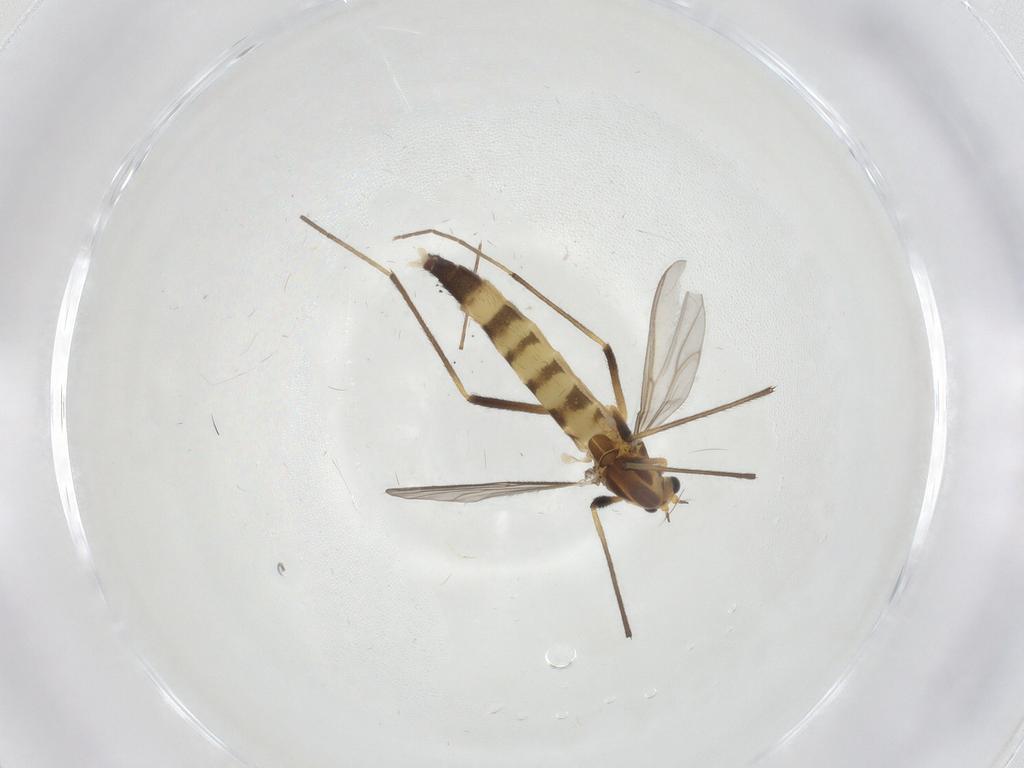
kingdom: Animalia
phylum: Arthropoda
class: Insecta
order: Diptera
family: Chironomidae
